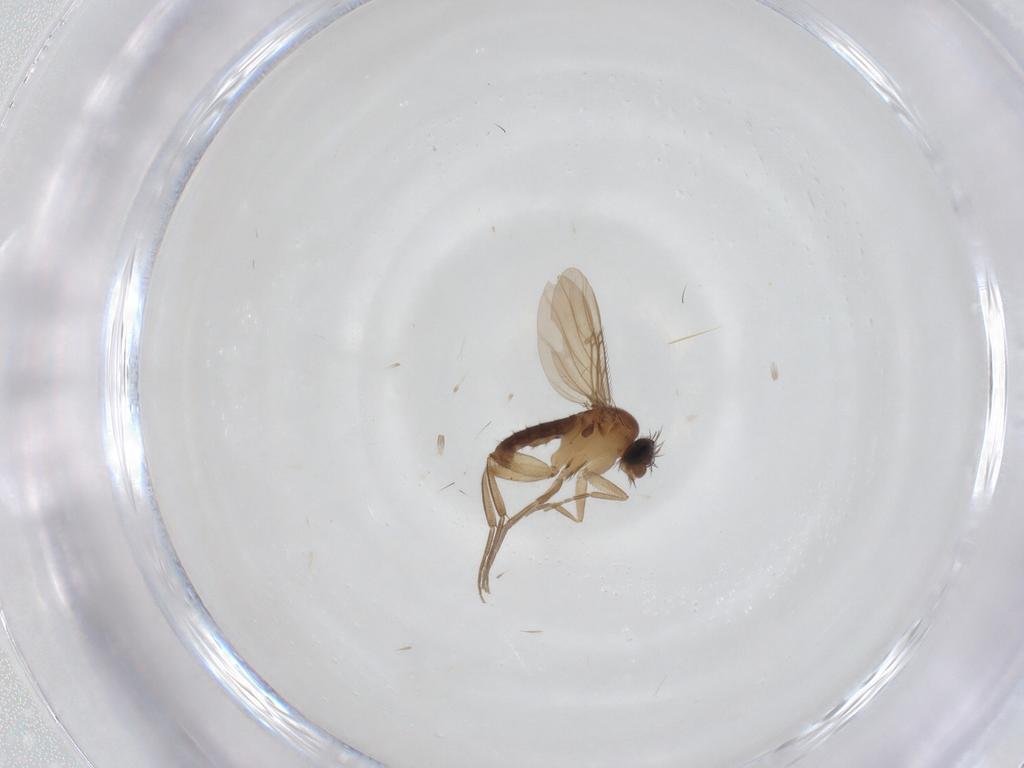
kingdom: Animalia
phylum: Arthropoda
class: Insecta
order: Diptera
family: Phoridae
